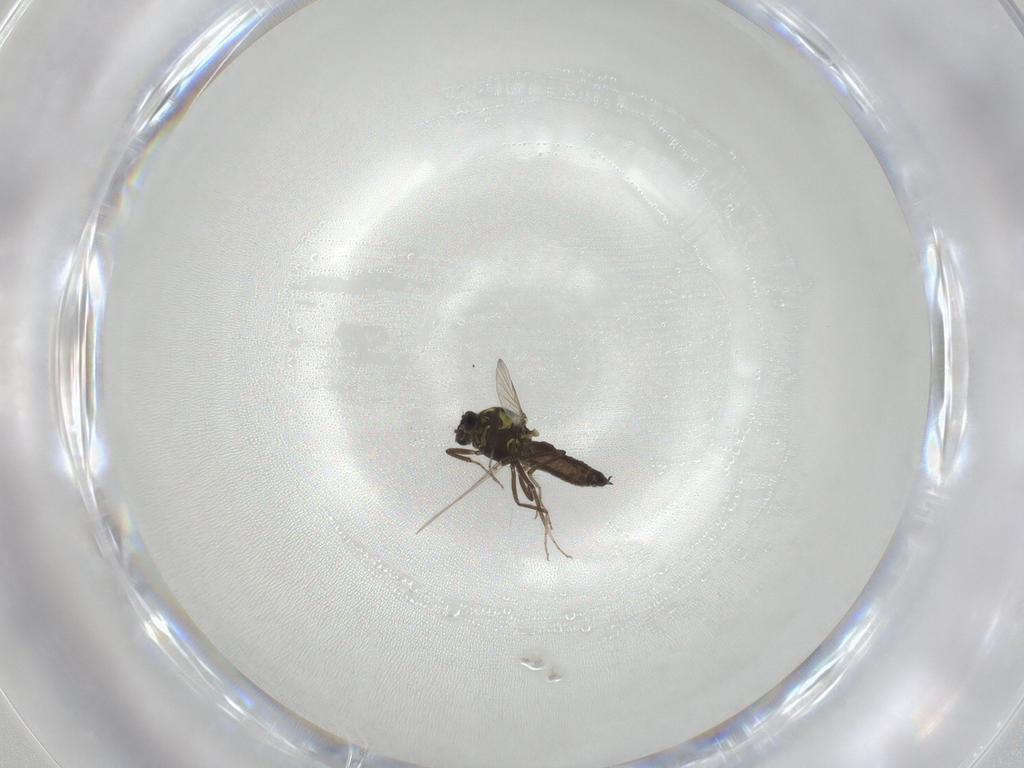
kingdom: Animalia
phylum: Arthropoda
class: Insecta
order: Diptera
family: Ceratopogonidae
